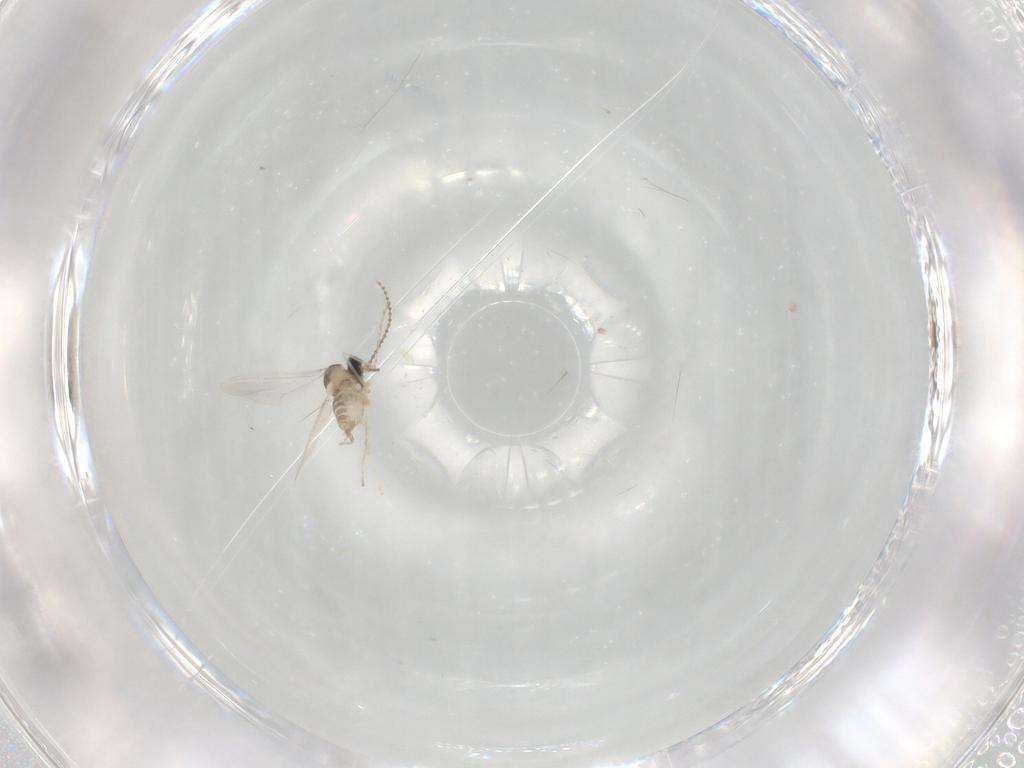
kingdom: Animalia
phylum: Arthropoda
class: Insecta
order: Diptera
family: Cecidomyiidae
